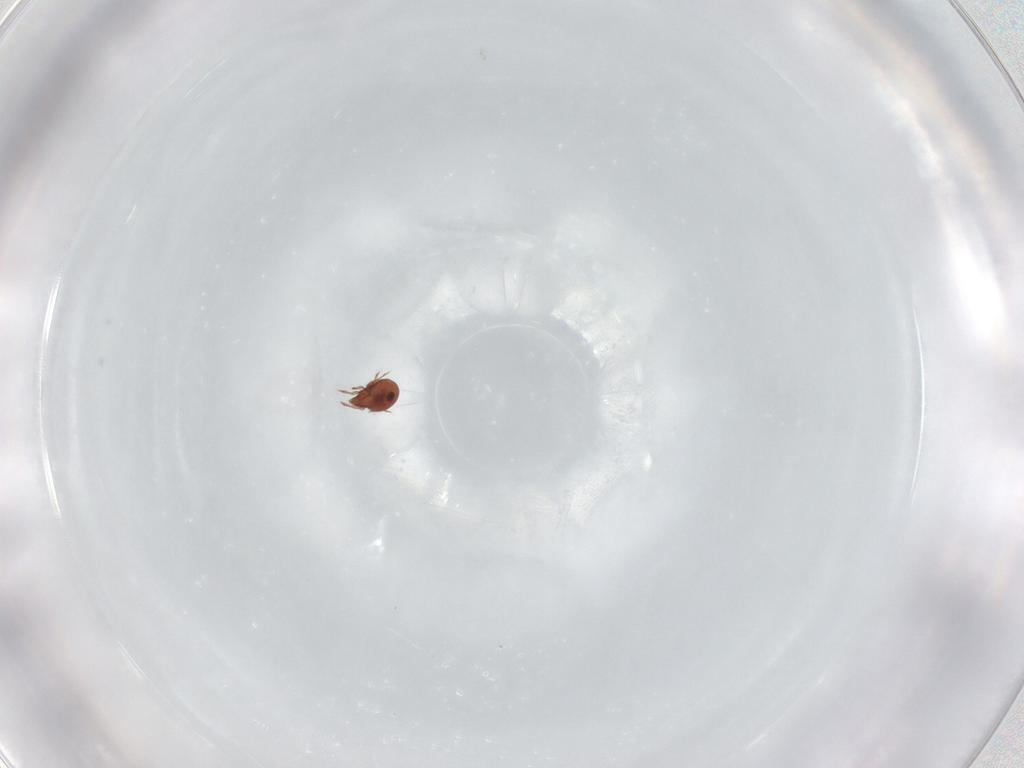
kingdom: Animalia
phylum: Arthropoda
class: Arachnida
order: Sarcoptiformes
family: Scheloribatidae
